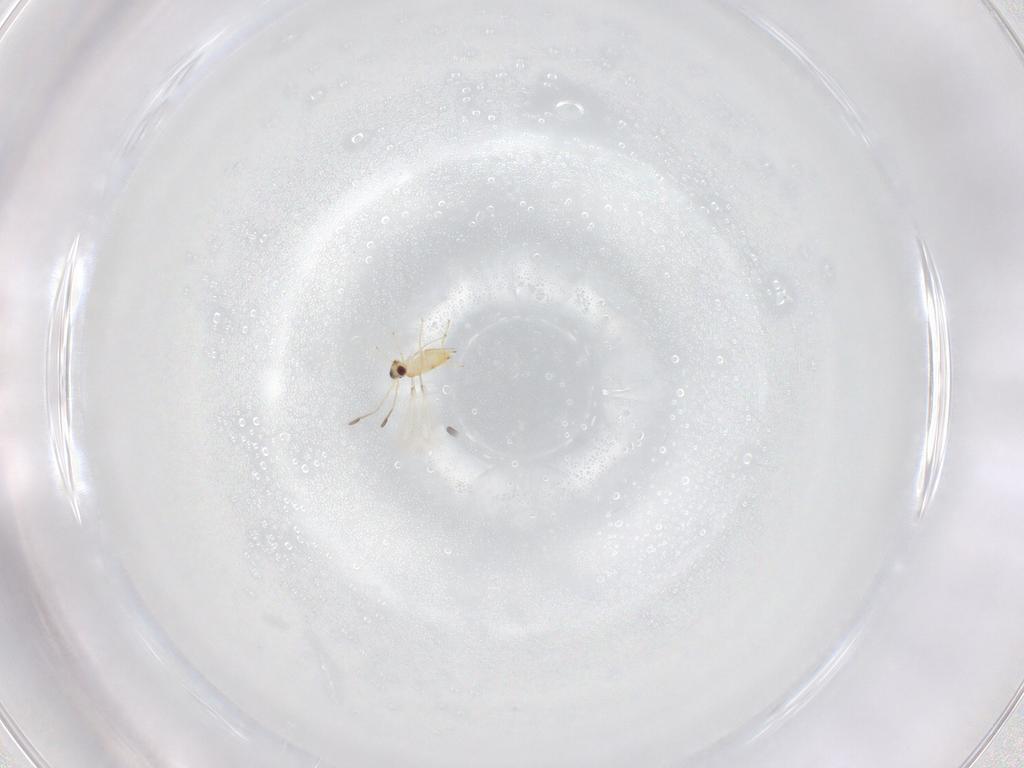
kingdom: Animalia
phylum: Arthropoda
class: Insecta
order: Hymenoptera
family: Mymaridae
